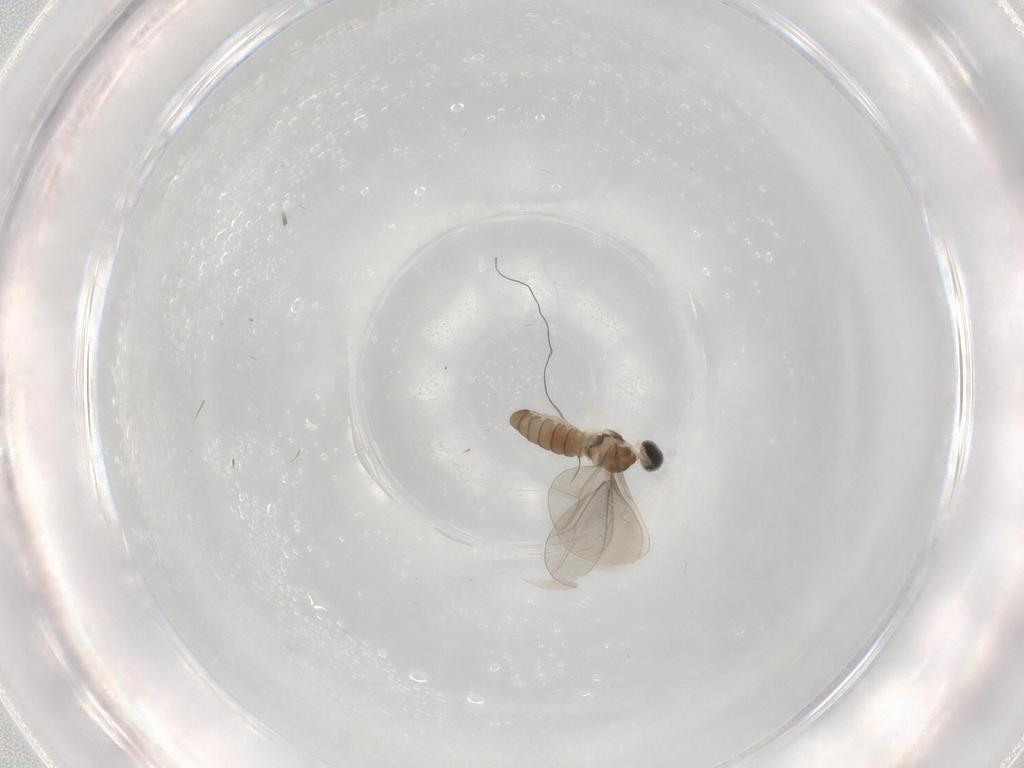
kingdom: Animalia
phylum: Arthropoda
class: Insecta
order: Diptera
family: Cecidomyiidae
